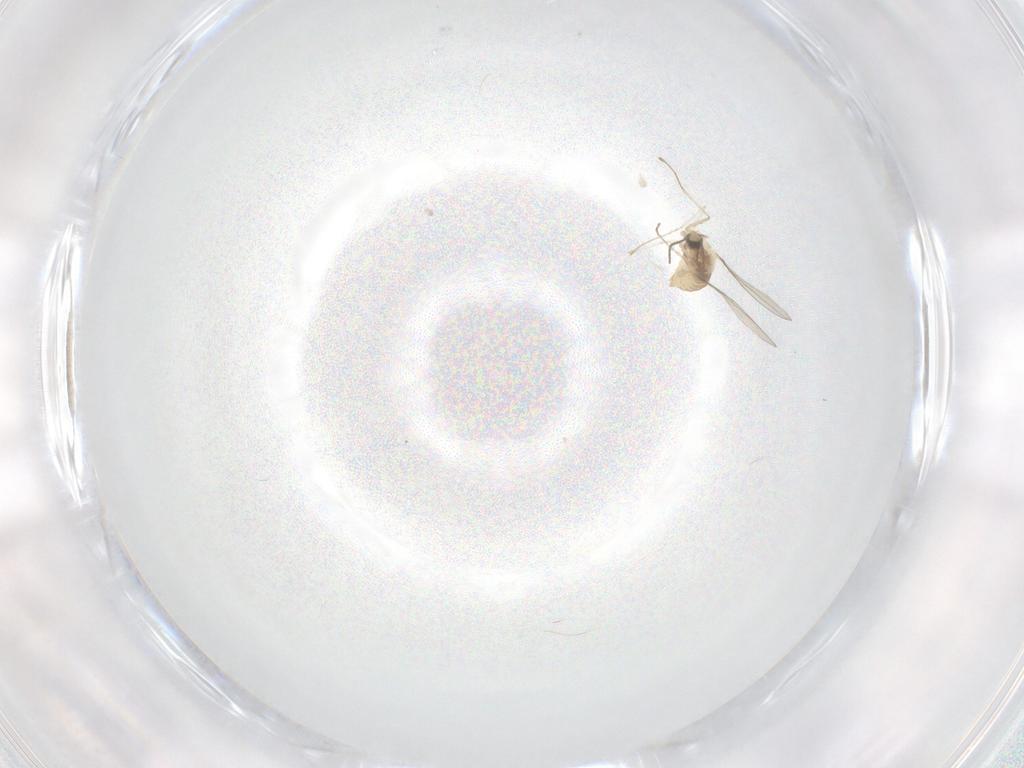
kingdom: Animalia
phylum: Arthropoda
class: Insecta
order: Diptera
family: Cecidomyiidae
